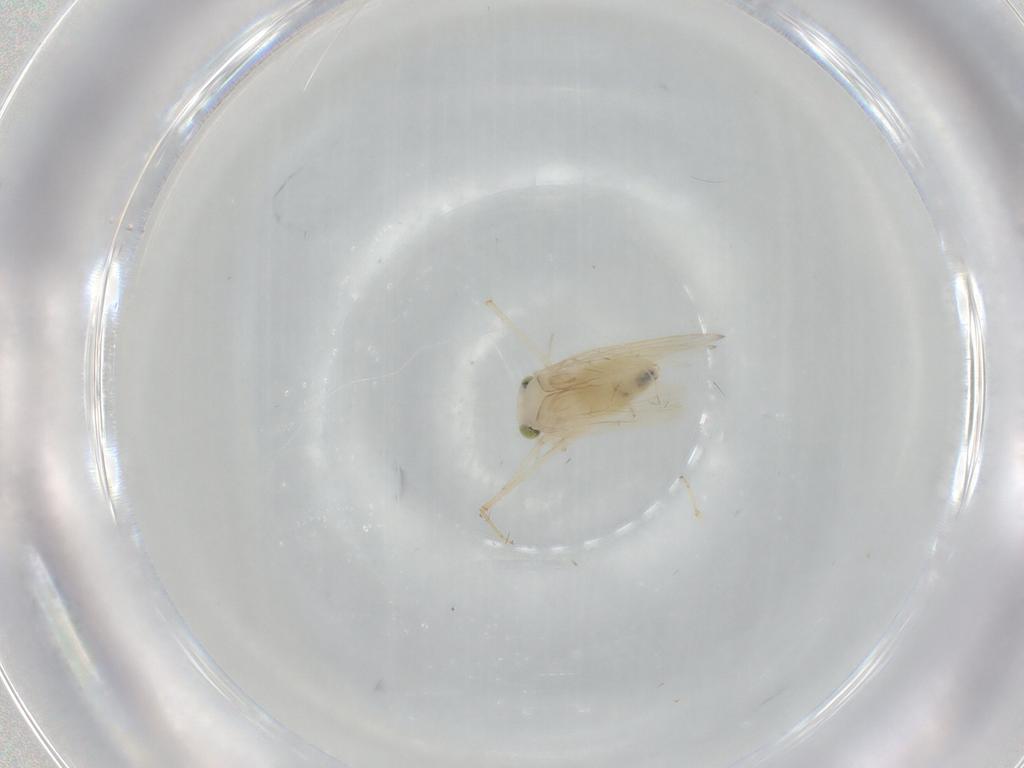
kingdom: Animalia
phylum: Arthropoda
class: Insecta
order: Psocodea
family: Lepidopsocidae
